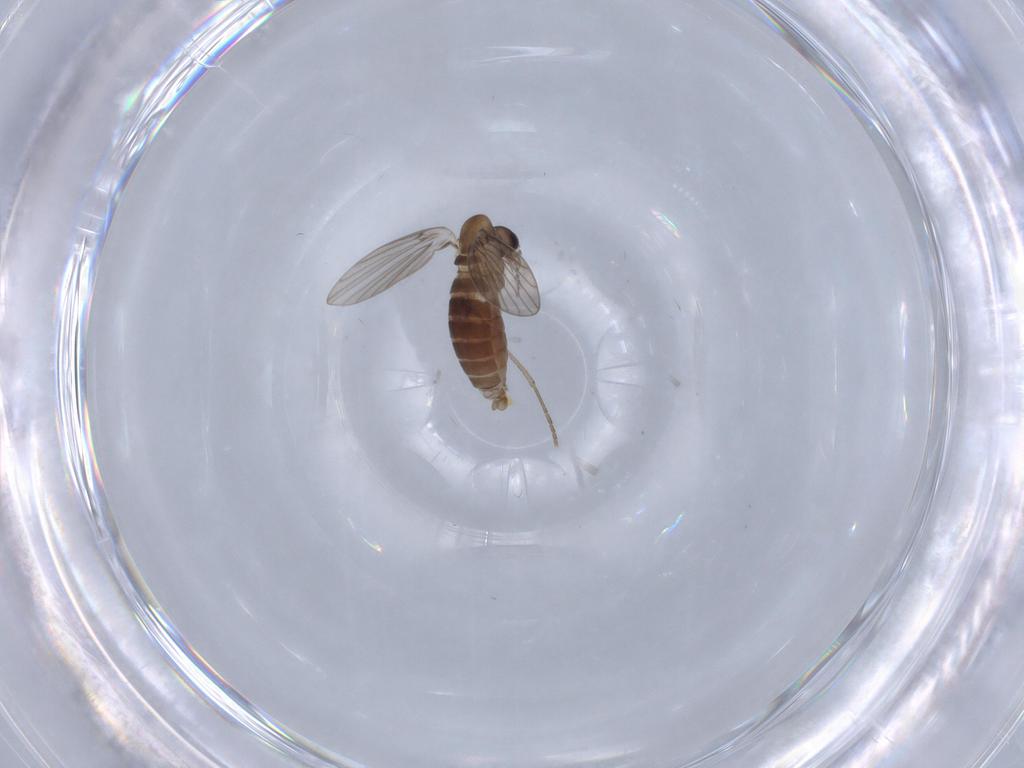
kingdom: Animalia
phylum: Arthropoda
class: Insecta
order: Diptera
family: Psychodidae
